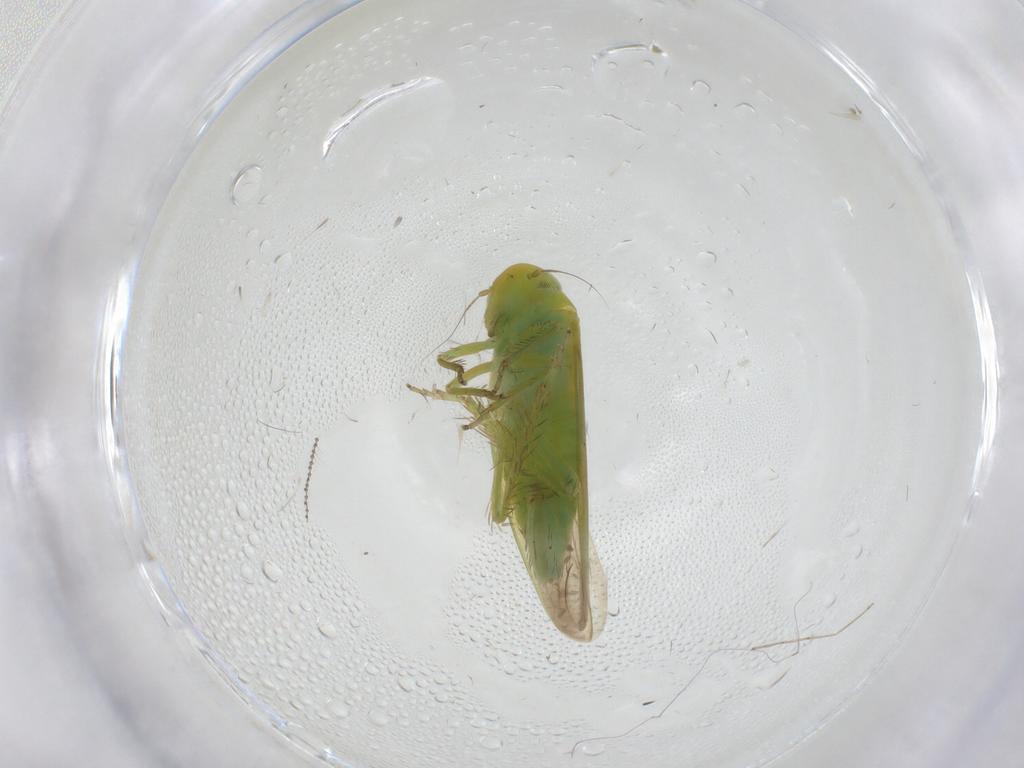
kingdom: Animalia
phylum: Arthropoda
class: Insecta
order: Hemiptera
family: Cicadellidae
